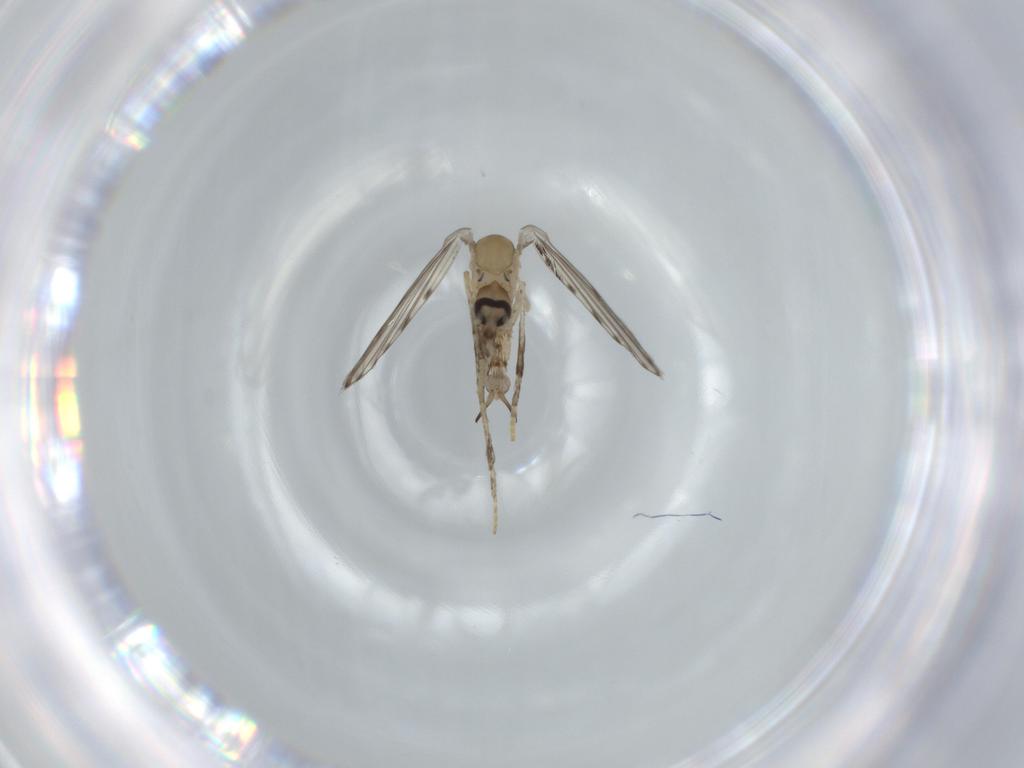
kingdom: Animalia
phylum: Arthropoda
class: Insecta
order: Diptera
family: Psychodidae
